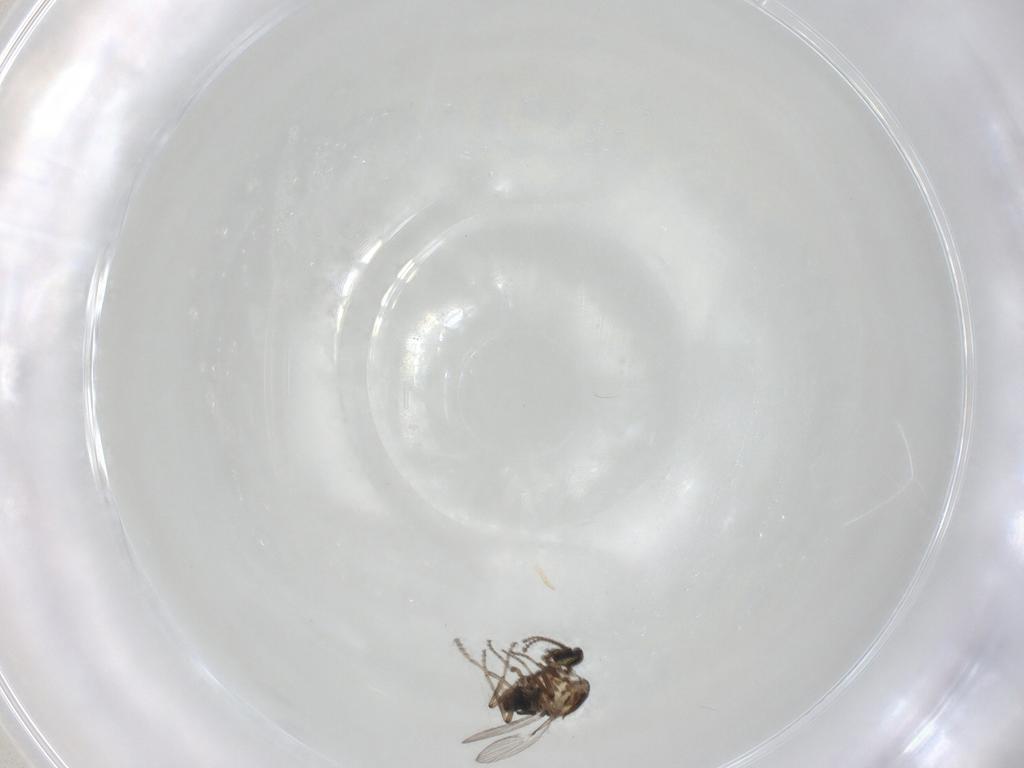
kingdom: Animalia
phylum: Arthropoda
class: Insecta
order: Diptera
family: Ceratopogonidae
